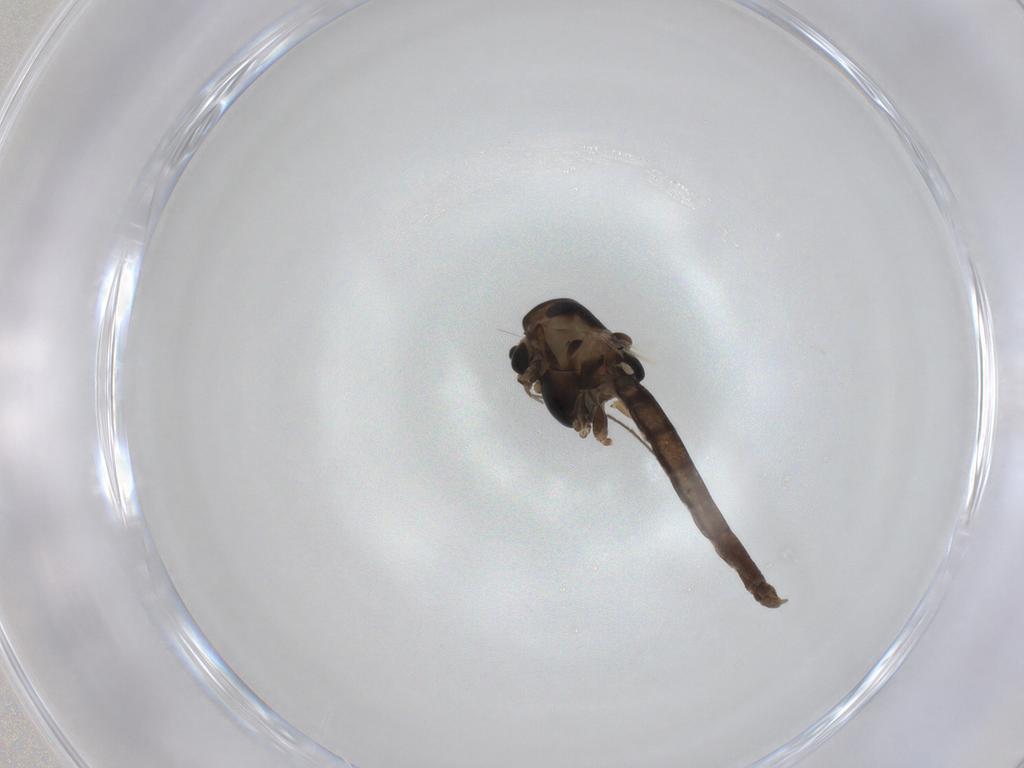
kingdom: Animalia
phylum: Arthropoda
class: Insecta
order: Diptera
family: Chironomidae
